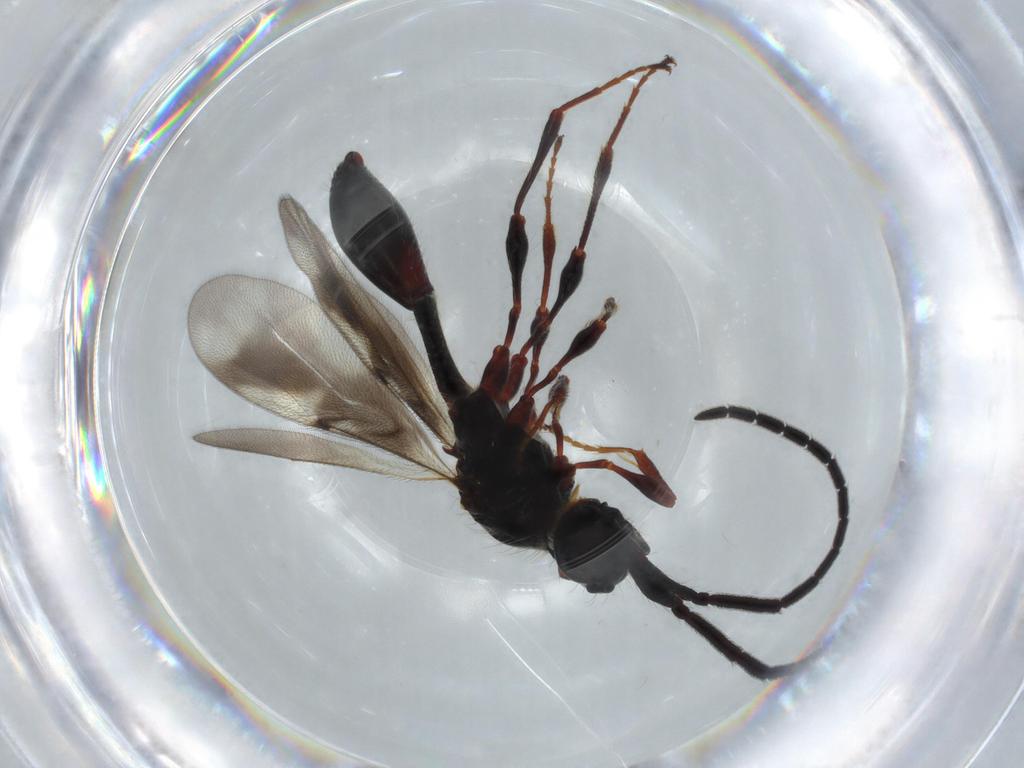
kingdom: Animalia
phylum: Arthropoda
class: Insecta
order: Hymenoptera
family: Diapriidae
